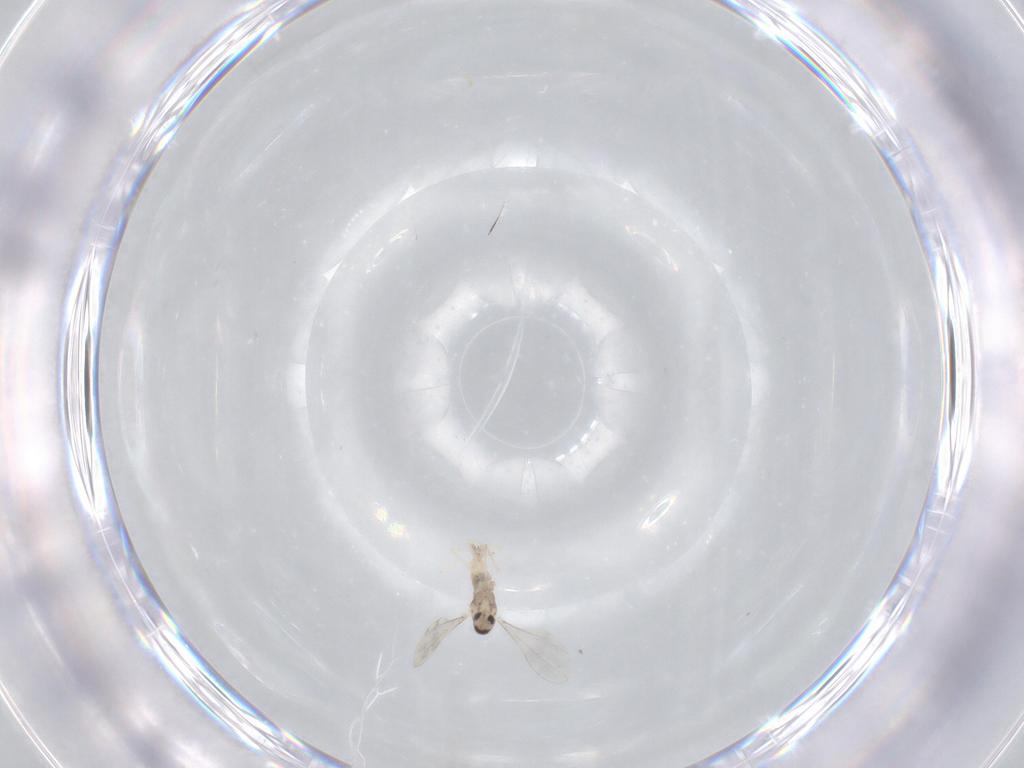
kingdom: Animalia
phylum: Arthropoda
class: Insecta
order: Diptera
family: Cecidomyiidae
